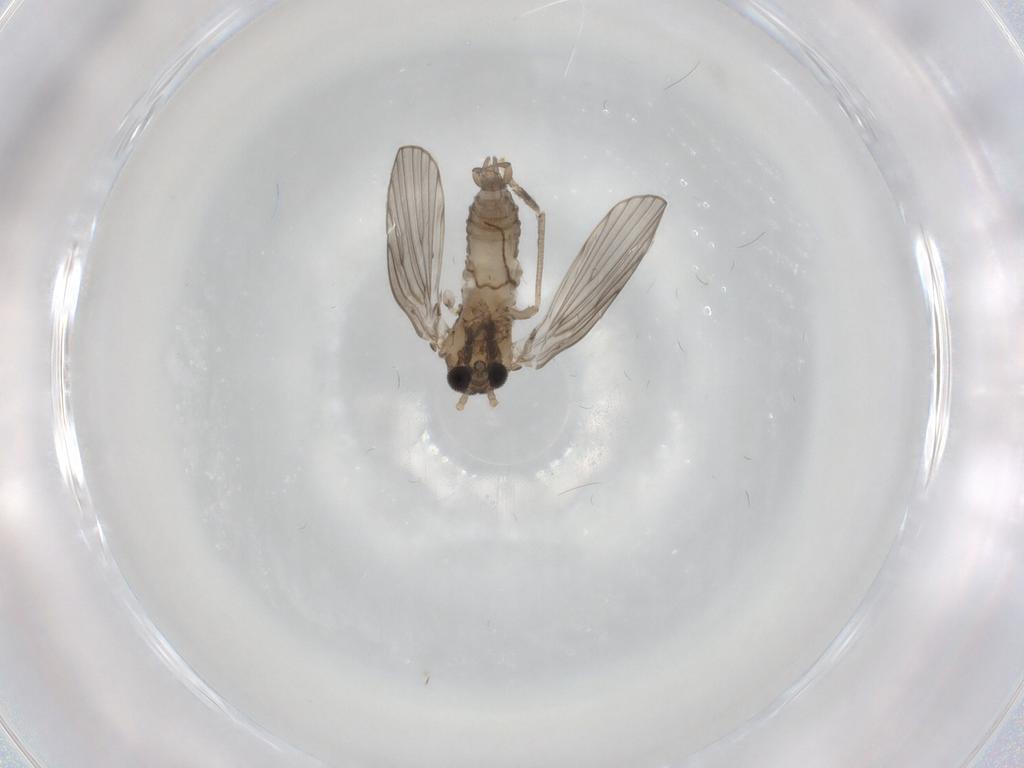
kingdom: Animalia
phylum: Arthropoda
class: Insecta
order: Diptera
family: Psychodidae
